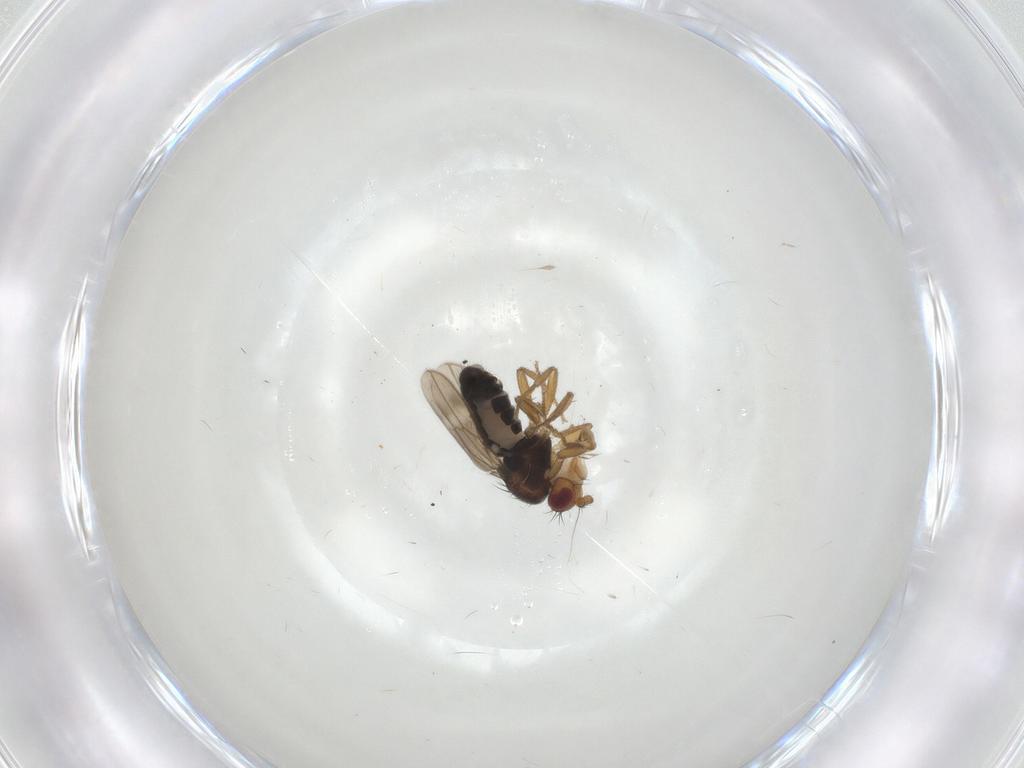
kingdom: Animalia
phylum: Arthropoda
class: Insecta
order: Diptera
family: Sphaeroceridae
